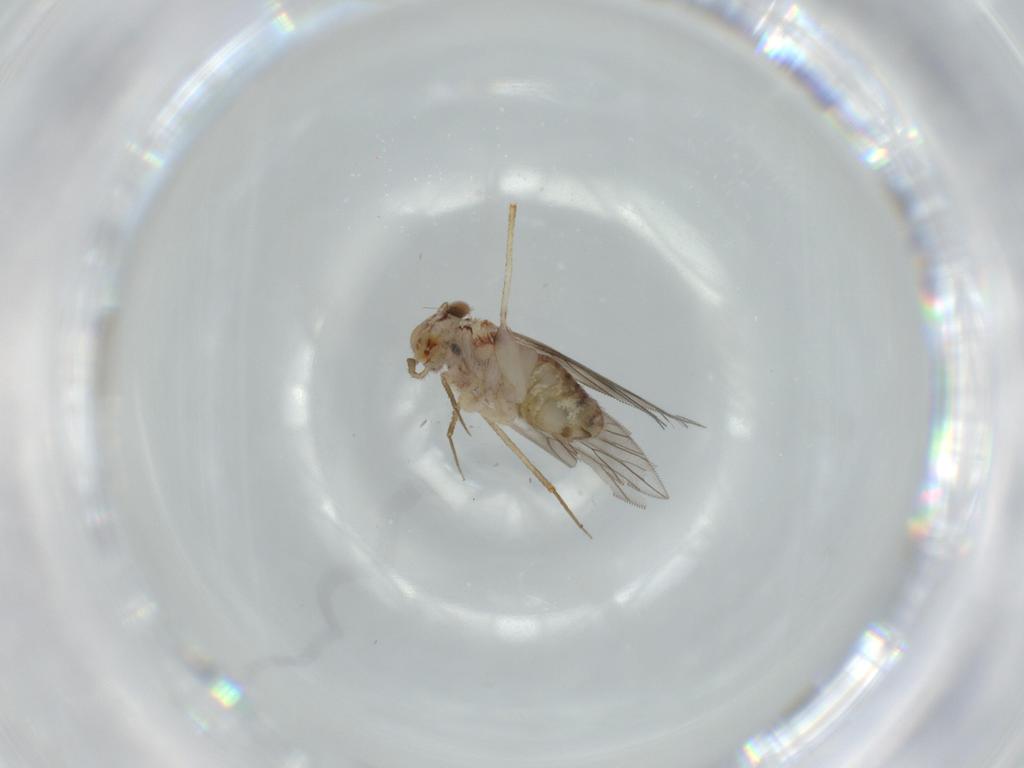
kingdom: Animalia
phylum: Arthropoda
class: Insecta
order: Psocodea
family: Lepidopsocidae
